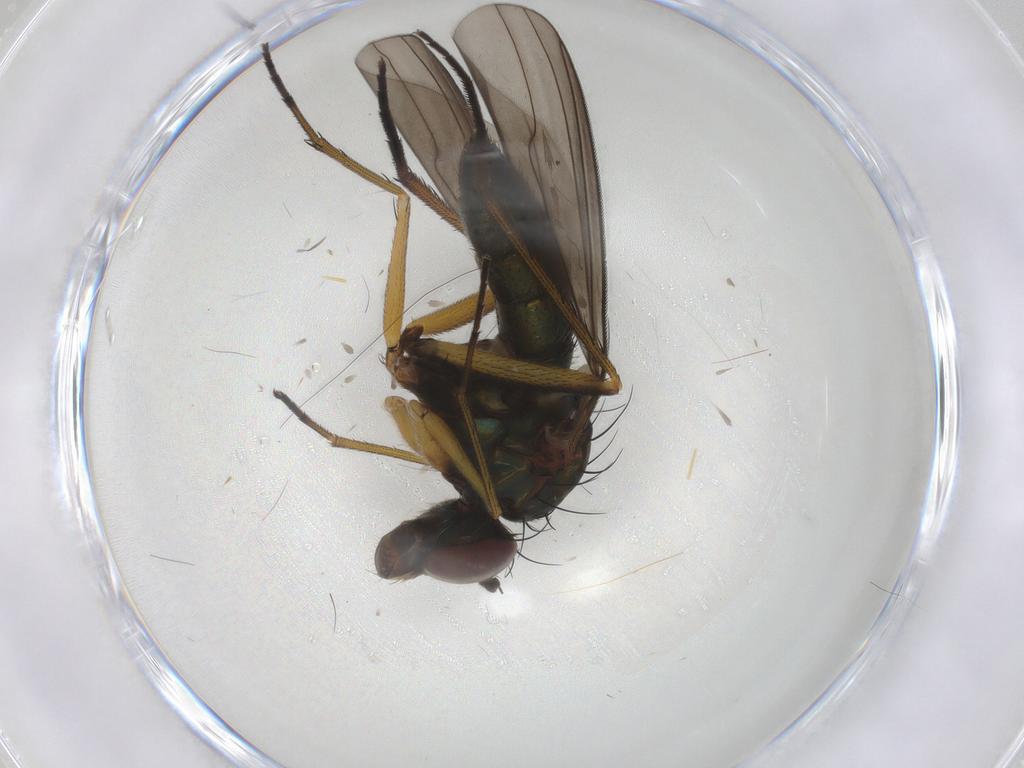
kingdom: Animalia
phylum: Arthropoda
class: Insecta
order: Diptera
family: Dolichopodidae
